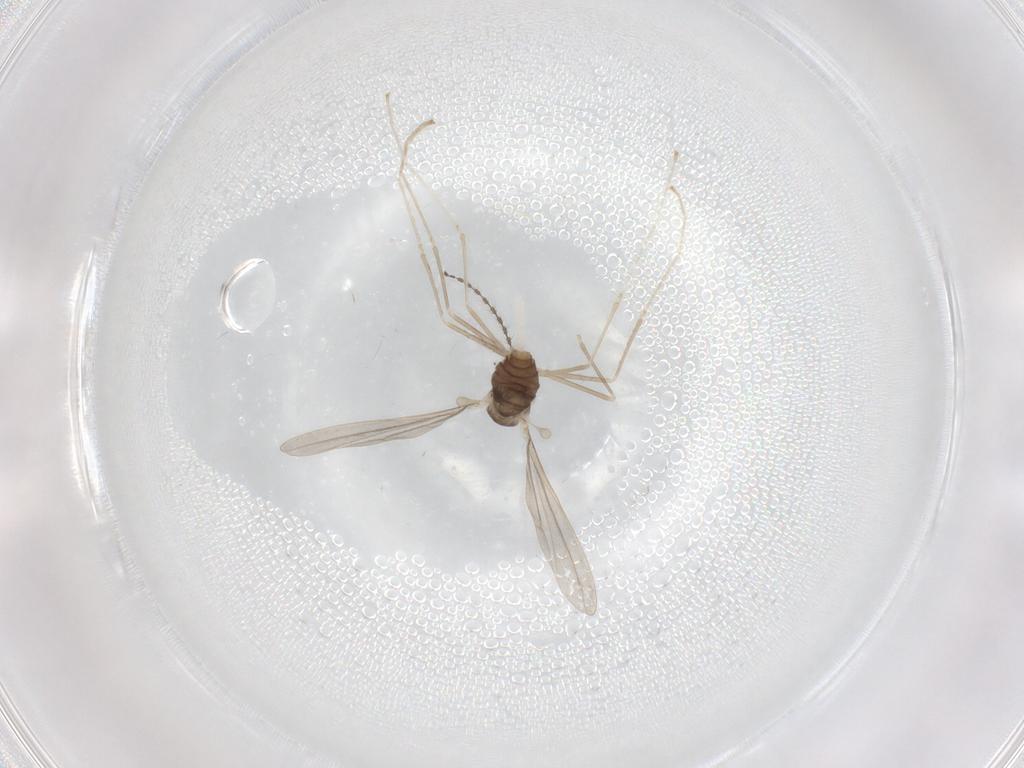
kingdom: Animalia
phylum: Arthropoda
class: Insecta
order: Diptera
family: Cecidomyiidae
